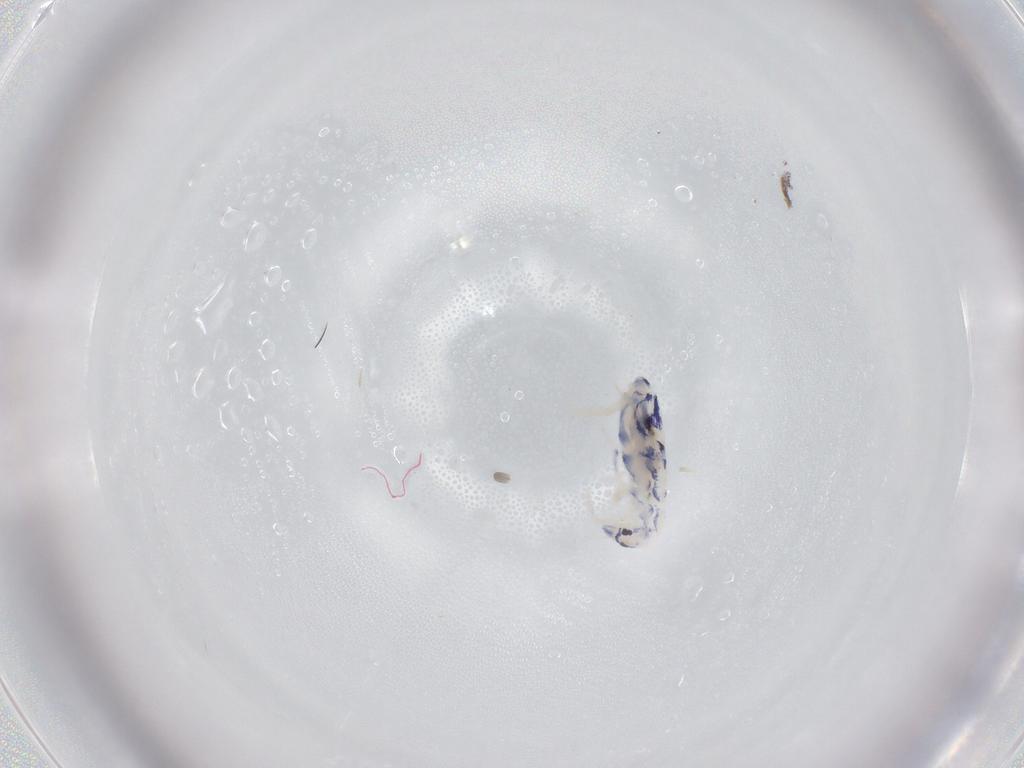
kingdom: Animalia
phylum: Arthropoda
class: Collembola
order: Entomobryomorpha
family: Entomobryidae
